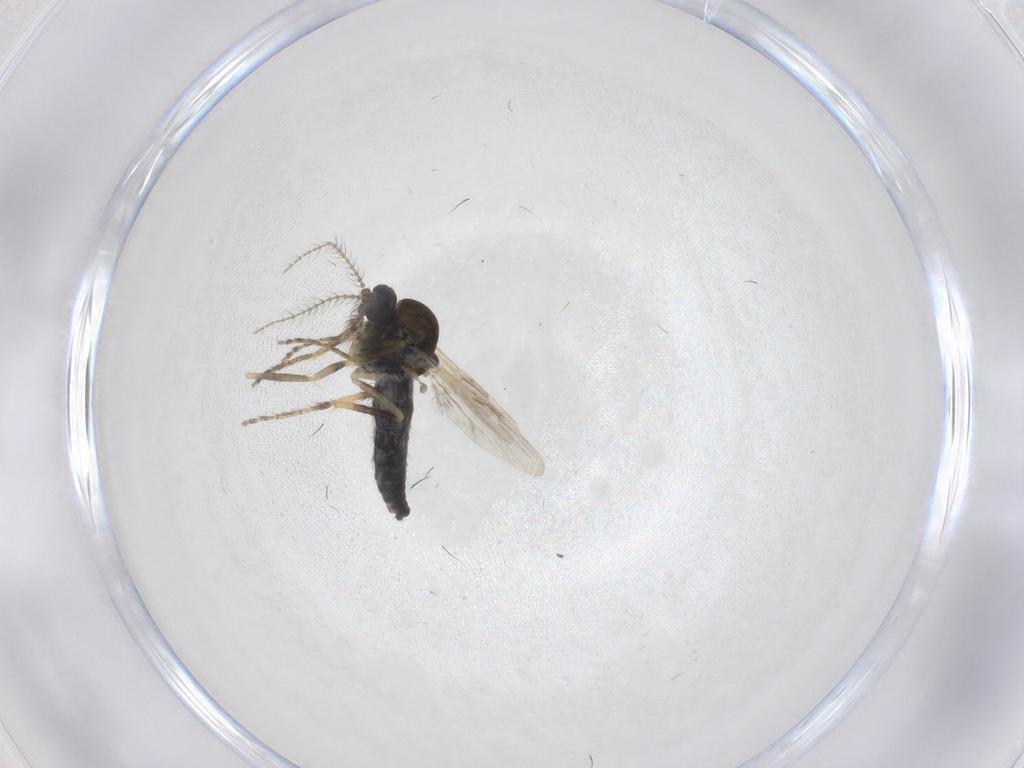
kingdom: Animalia
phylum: Arthropoda
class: Insecta
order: Diptera
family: Ceratopogonidae
